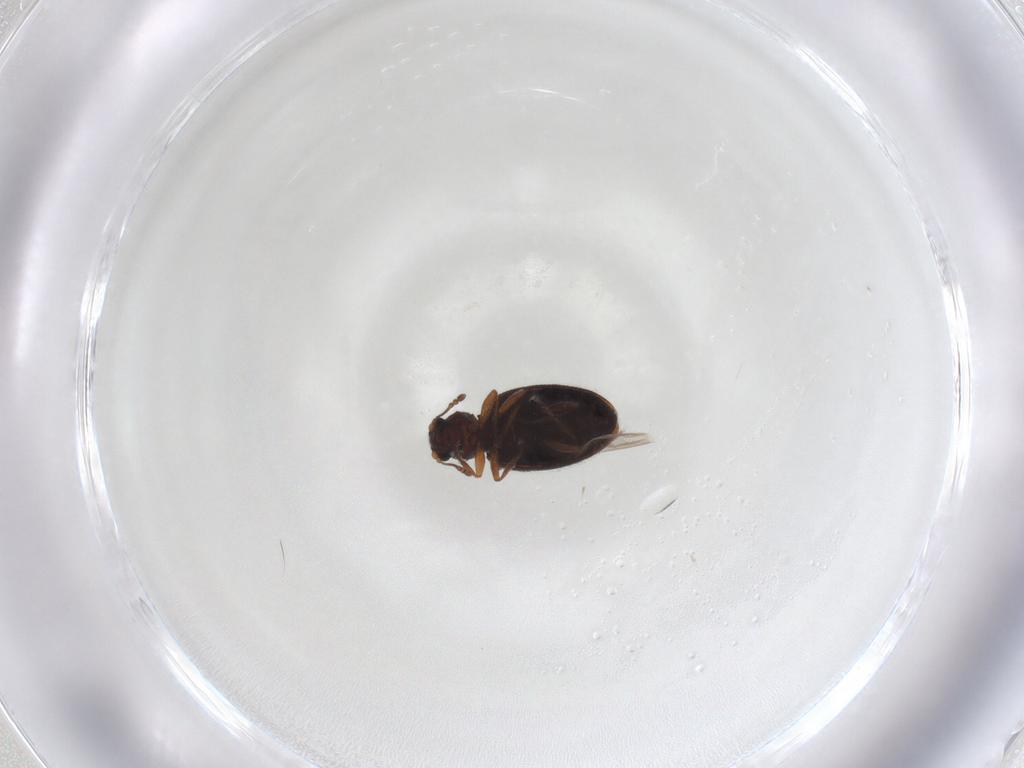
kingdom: Animalia
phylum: Arthropoda
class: Insecta
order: Coleoptera
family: Latridiidae
